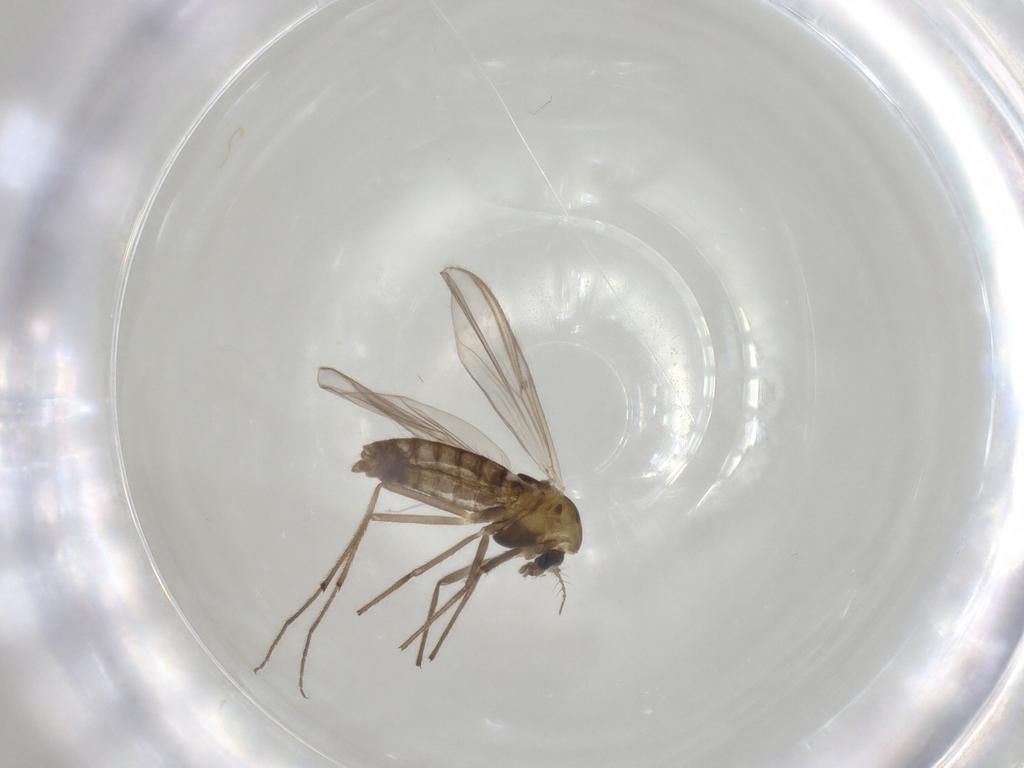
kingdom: Animalia
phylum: Arthropoda
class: Insecta
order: Diptera
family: Chironomidae
